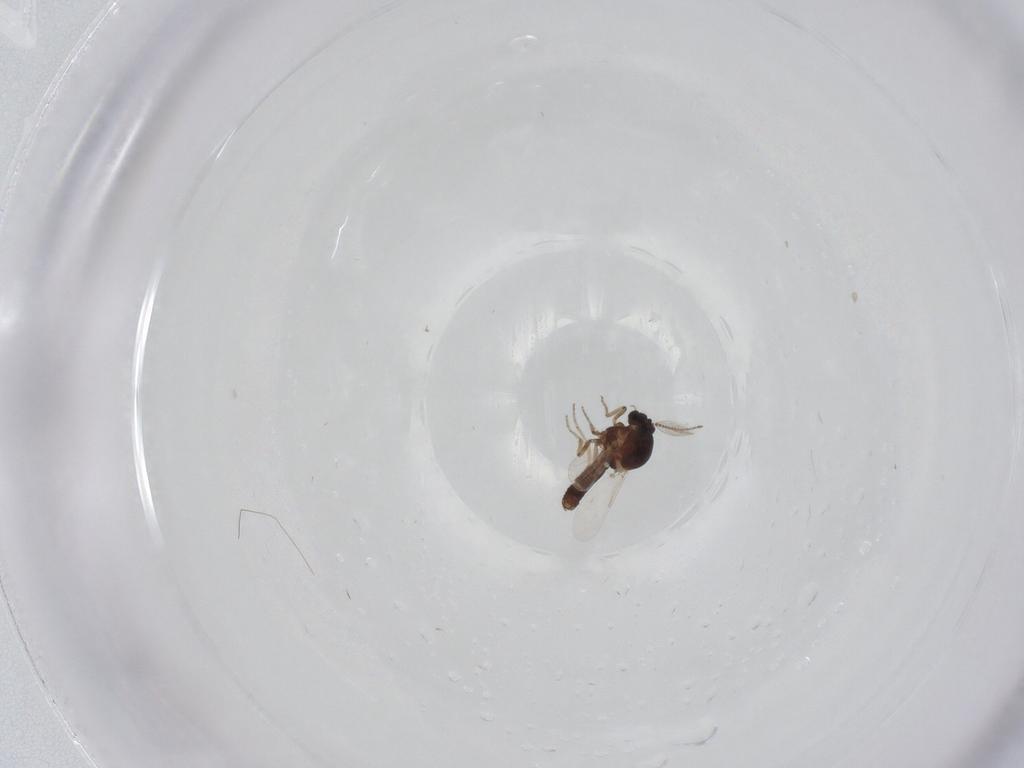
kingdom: Animalia
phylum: Arthropoda
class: Insecta
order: Diptera
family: Ceratopogonidae
